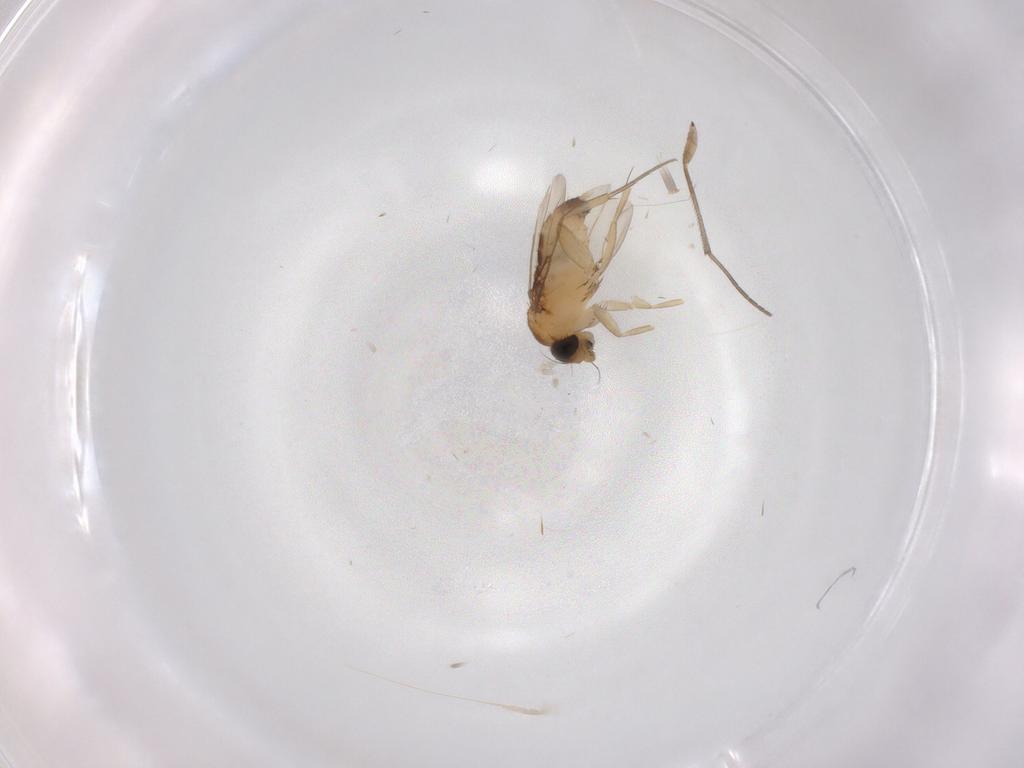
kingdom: Animalia
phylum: Arthropoda
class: Insecta
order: Diptera
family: Phoridae
